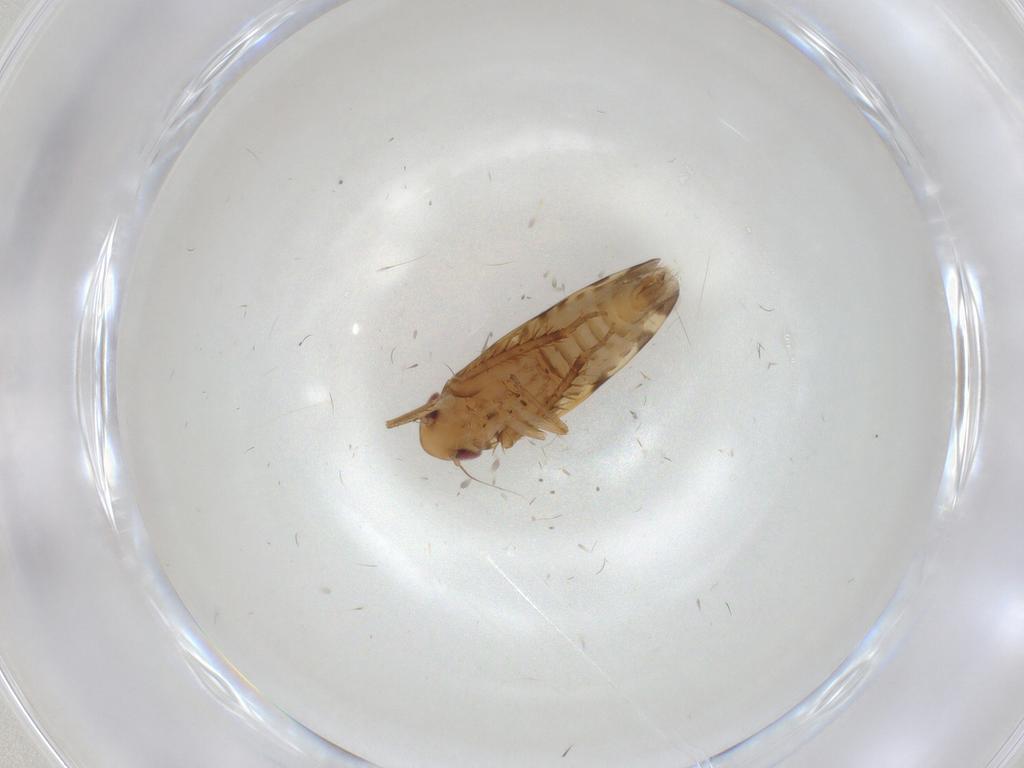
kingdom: Animalia
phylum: Arthropoda
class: Insecta
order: Hemiptera
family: Cicadellidae
